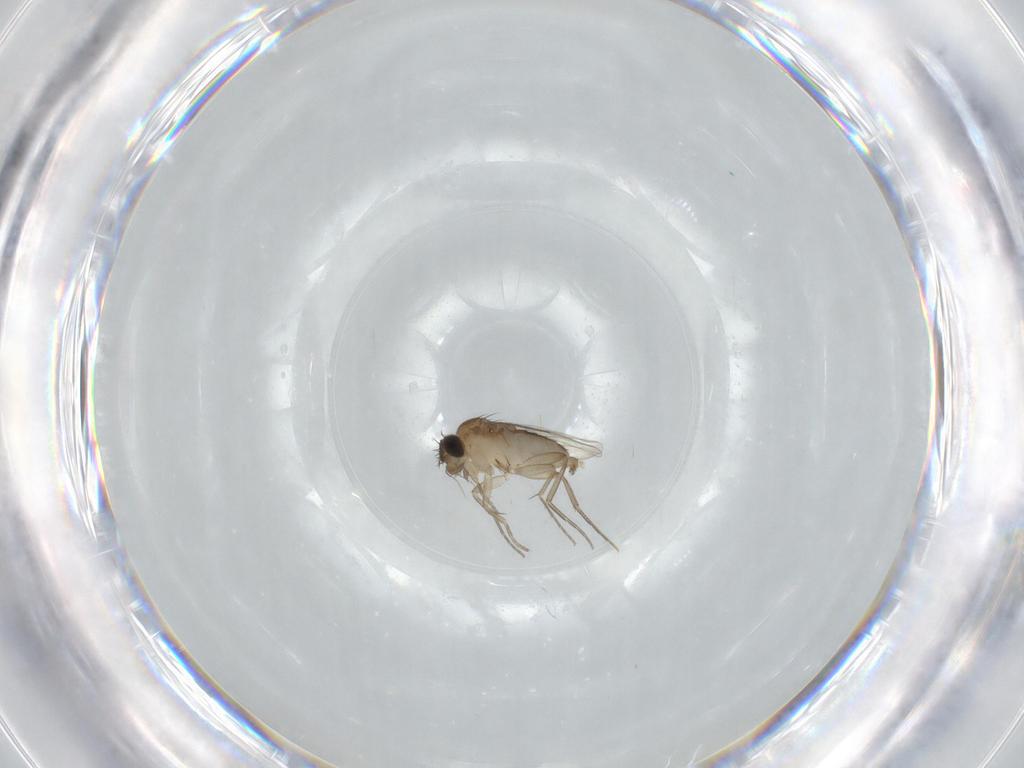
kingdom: Animalia
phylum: Arthropoda
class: Insecta
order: Diptera
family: Phoridae
